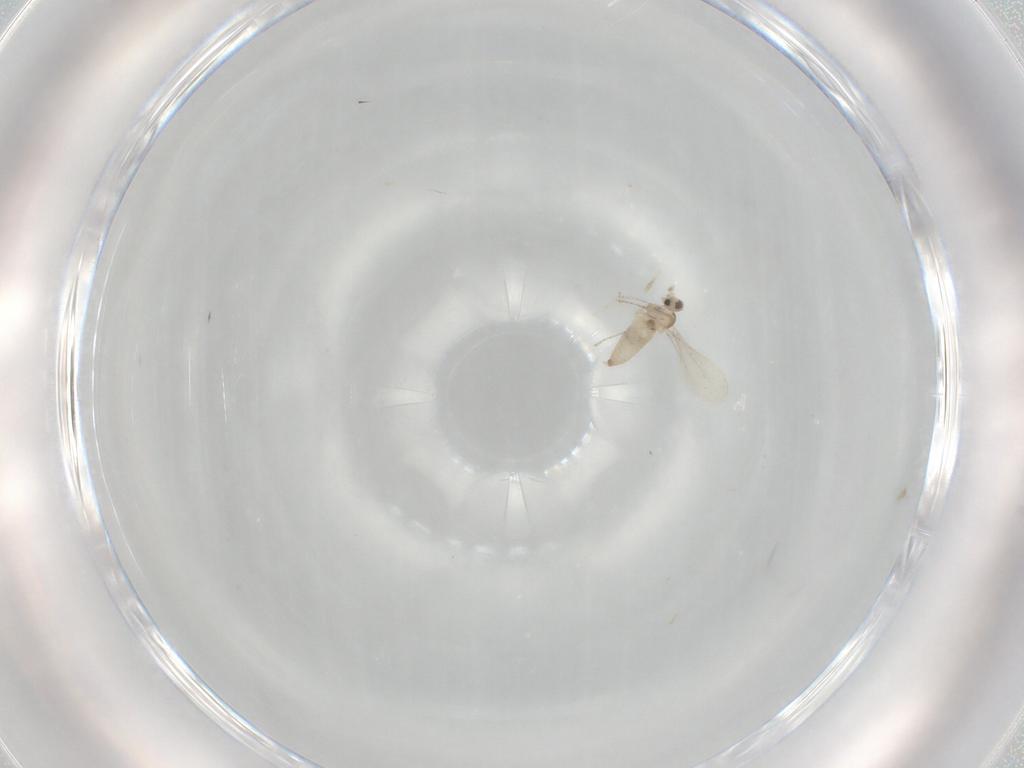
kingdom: Animalia
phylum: Arthropoda
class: Insecta
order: Diptera
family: Cecidomyiidae
